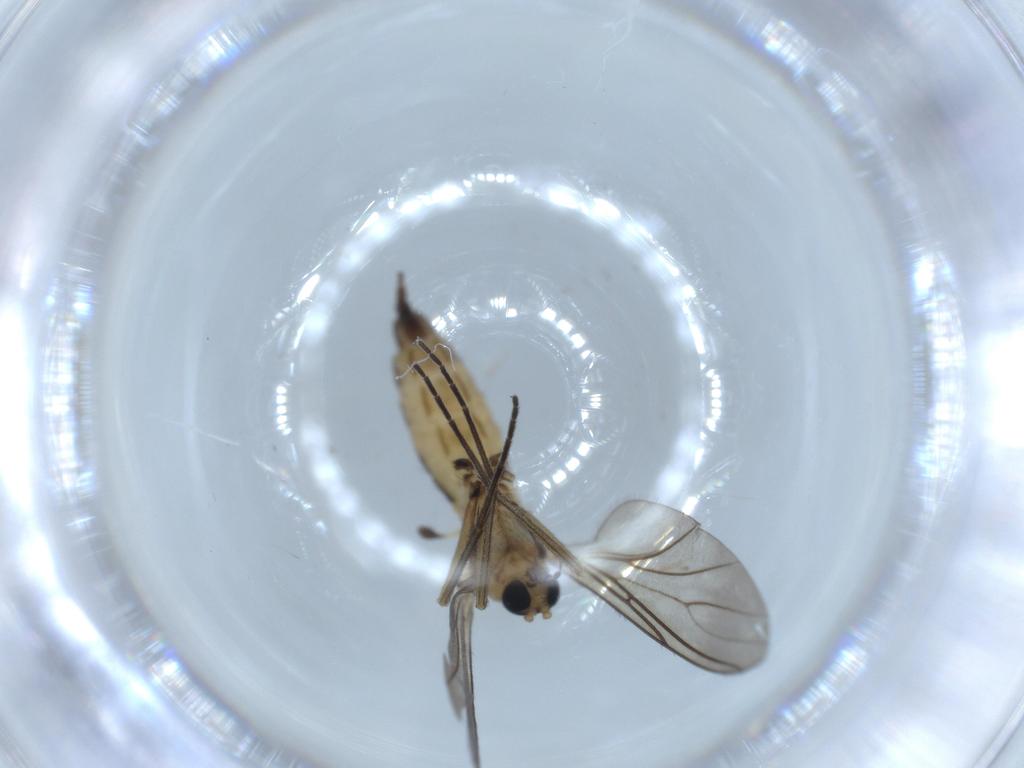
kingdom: Animalia
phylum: Arthropoda
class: Insecta
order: Diptera
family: Sciaridae
